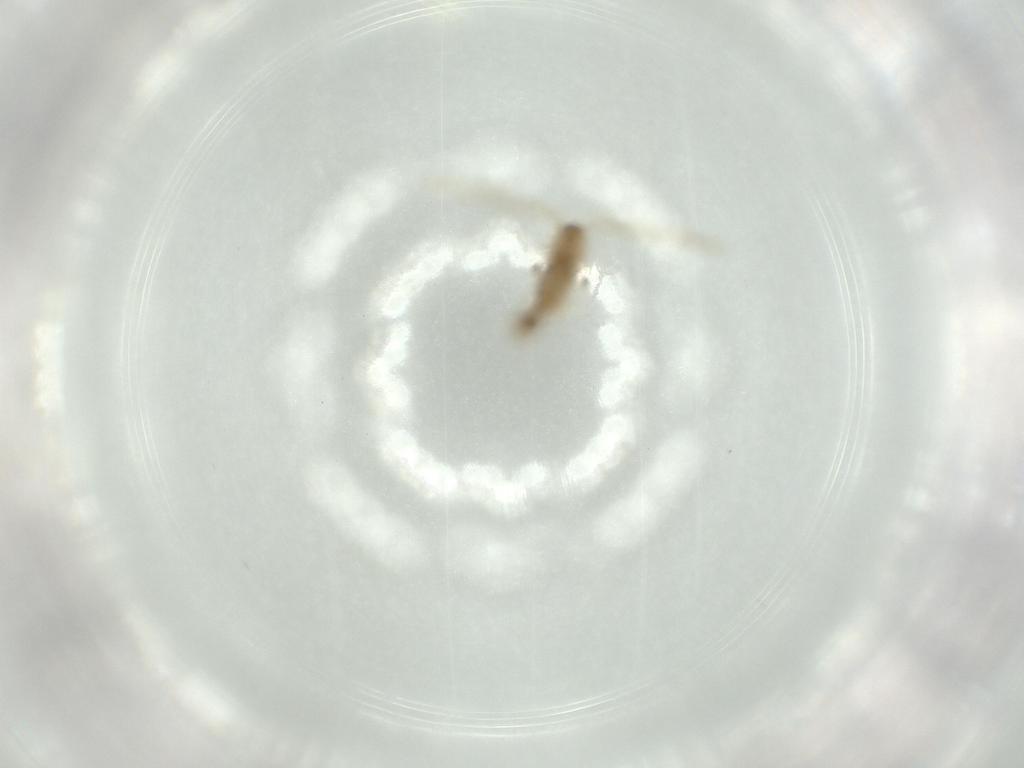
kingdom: Animalia
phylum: Arthropoda
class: Insecta
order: Diptera
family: Psychodidae
